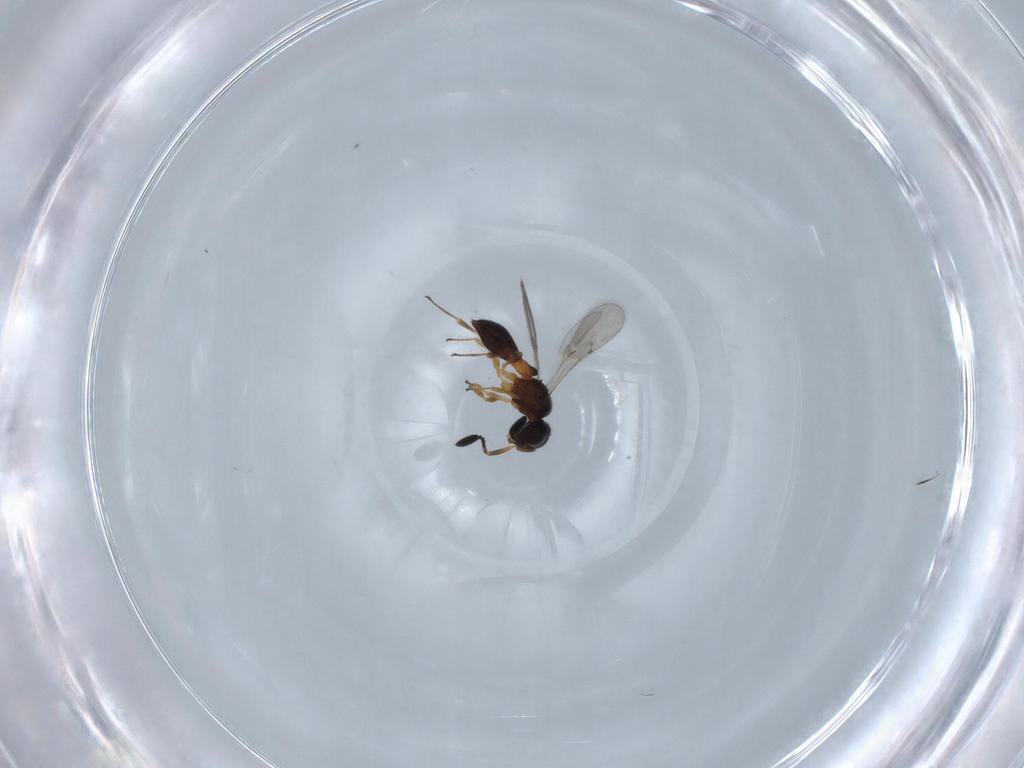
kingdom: Animalia
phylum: Arthropoda
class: Insecta
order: Hymenoptera
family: Scelionidae
